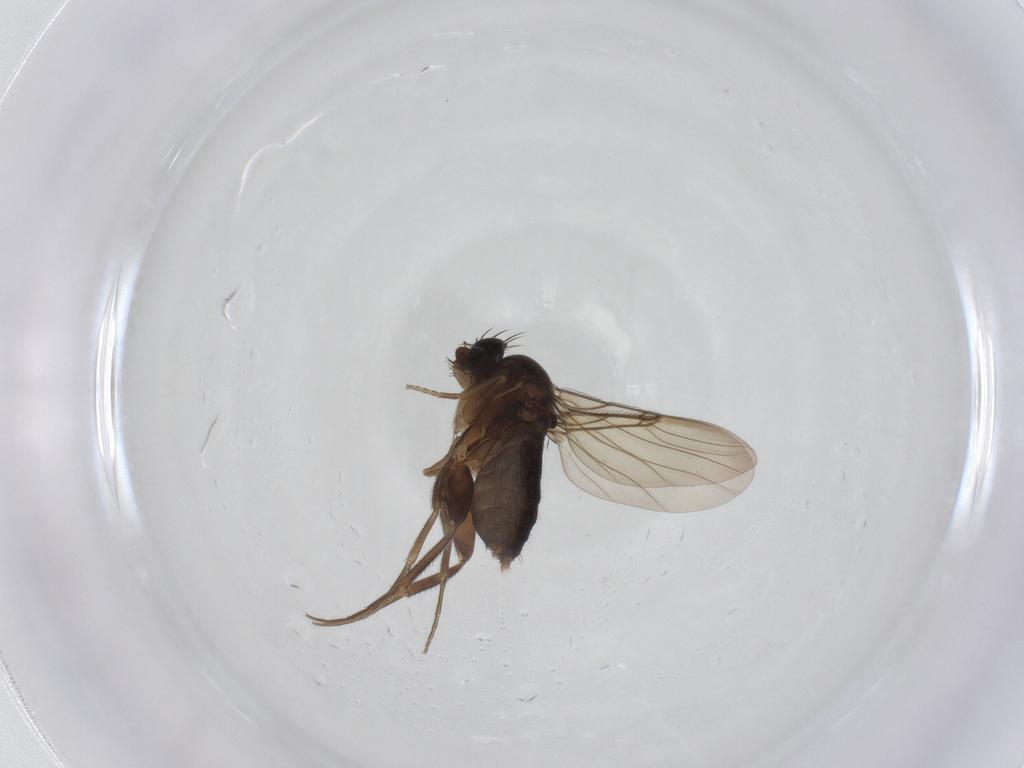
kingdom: Animalia
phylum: Arthropoda
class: Insecta
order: Diptera
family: Phoridae
